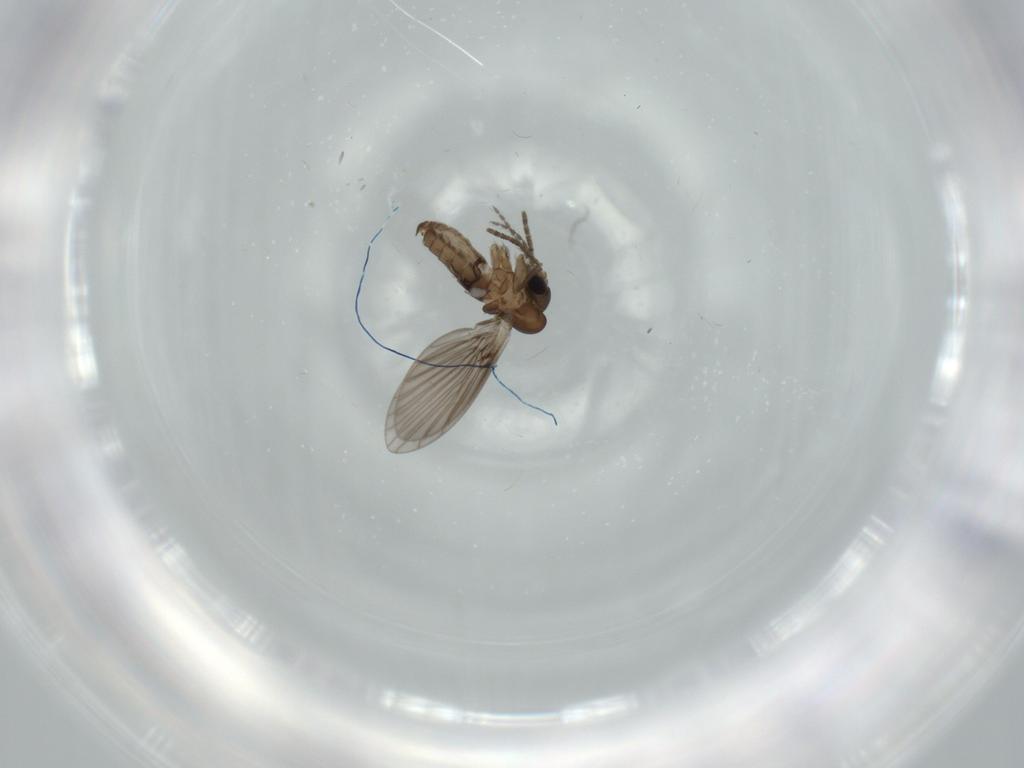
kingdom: Animalia
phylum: Arthropoda
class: Insecta
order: Diptera
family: Psychodidae
